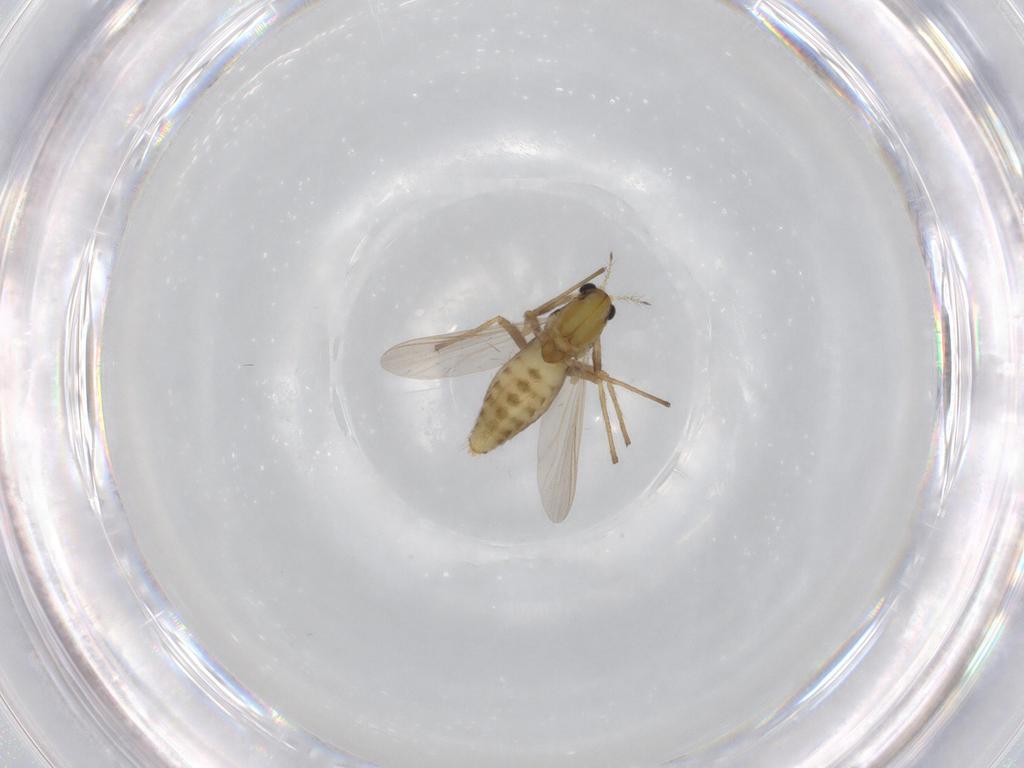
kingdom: Animalia
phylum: Arthropoda
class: Insecta
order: Diptera
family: Chironomidae
